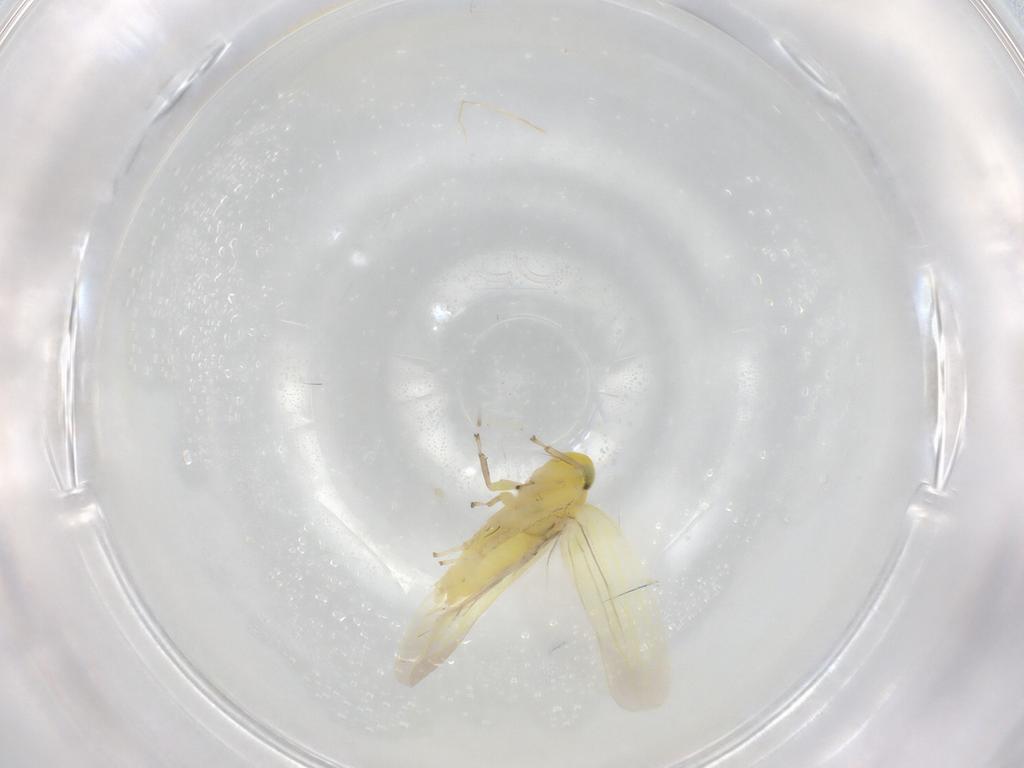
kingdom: Animalia
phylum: Arthropoda
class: Insecta
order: Hemiptera
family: Cicadellidae
